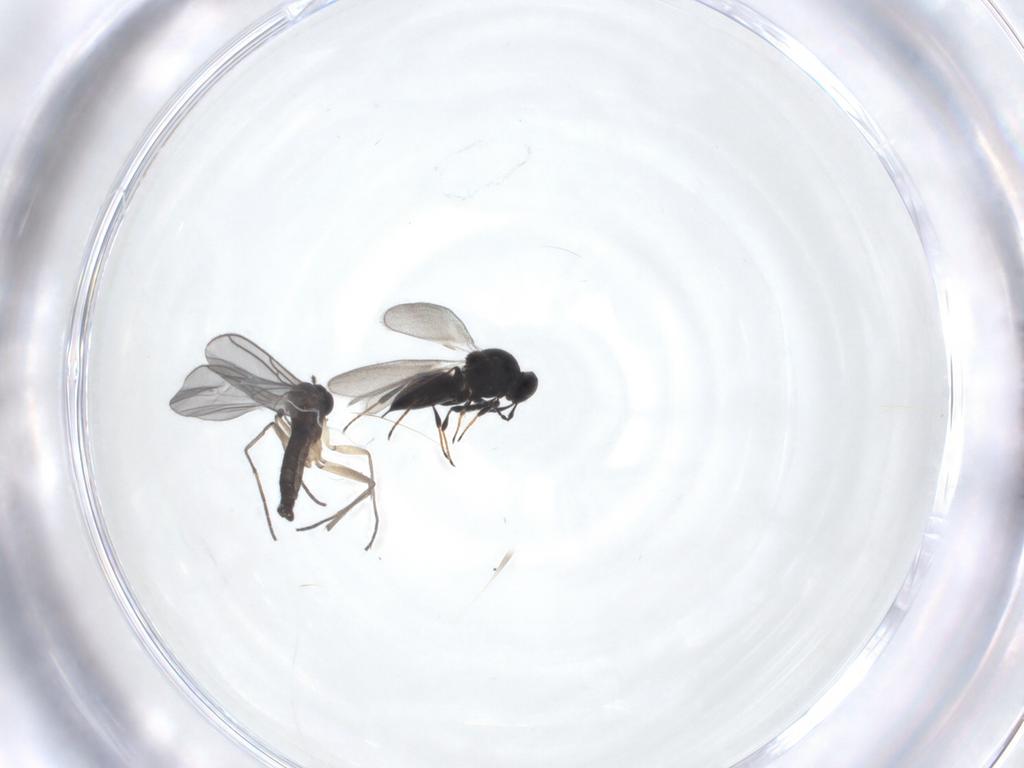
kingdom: Animalia
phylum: Arthropoda
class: Insecta
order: Diptera
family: Sciaridae
